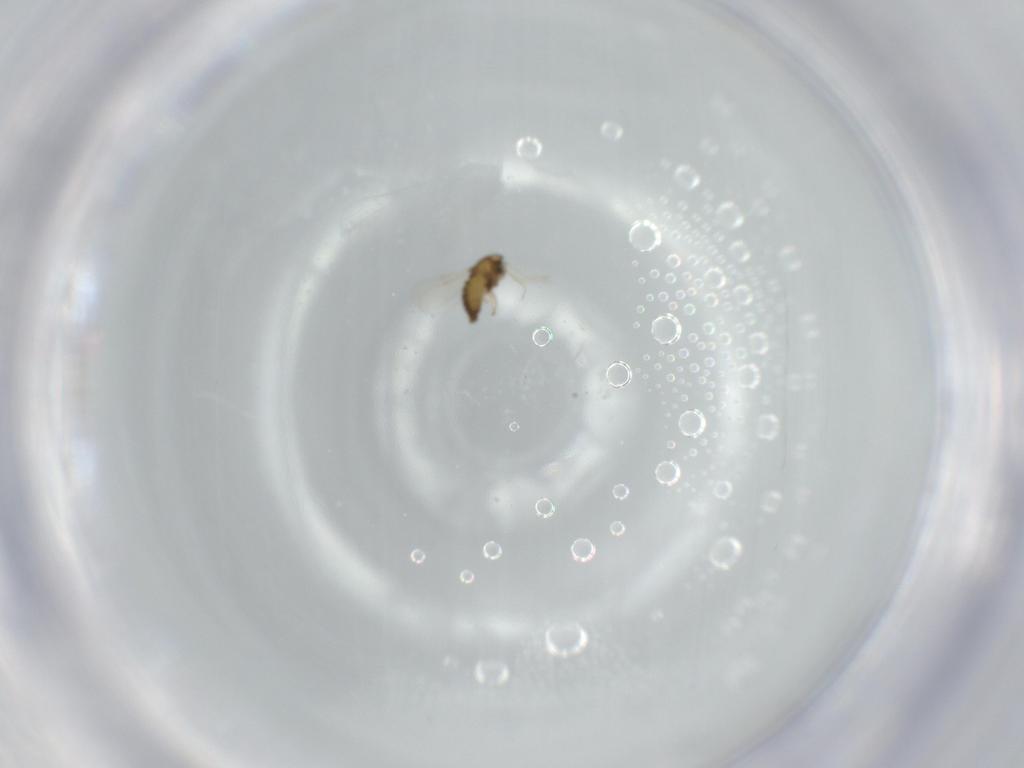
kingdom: Animalia
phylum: Arthropoda
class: Insecta
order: Diptera
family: Chironomidae
